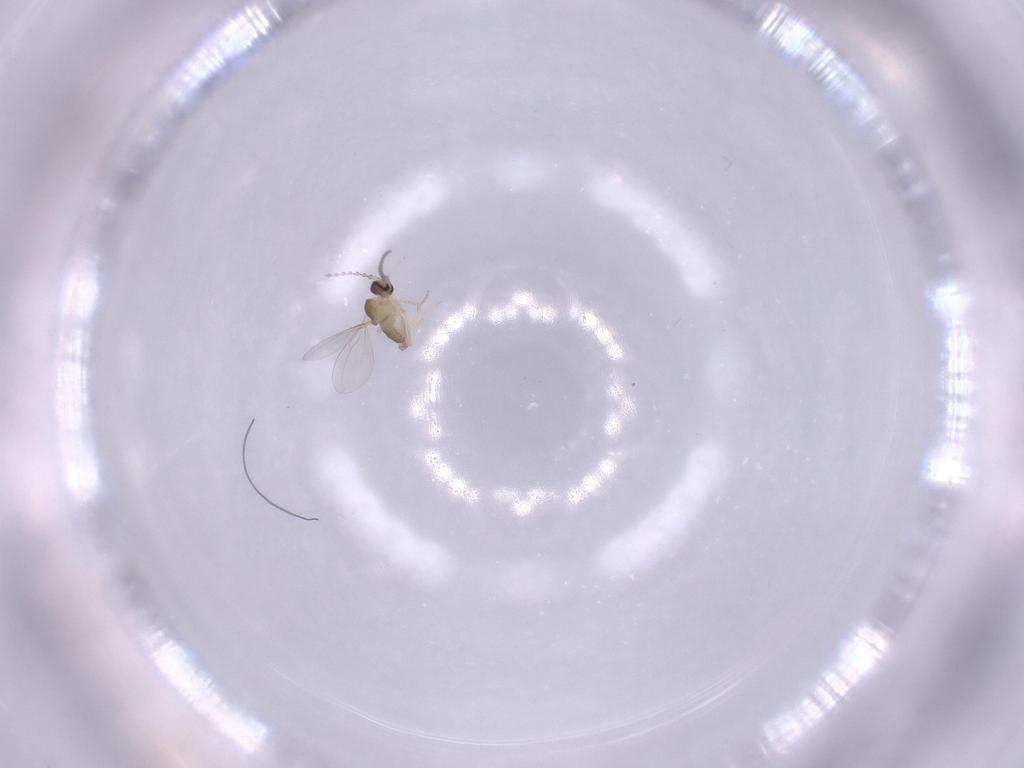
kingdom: Animalia
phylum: Arthropoda
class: Insecta
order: Diptera
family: Cecidomyiidae
